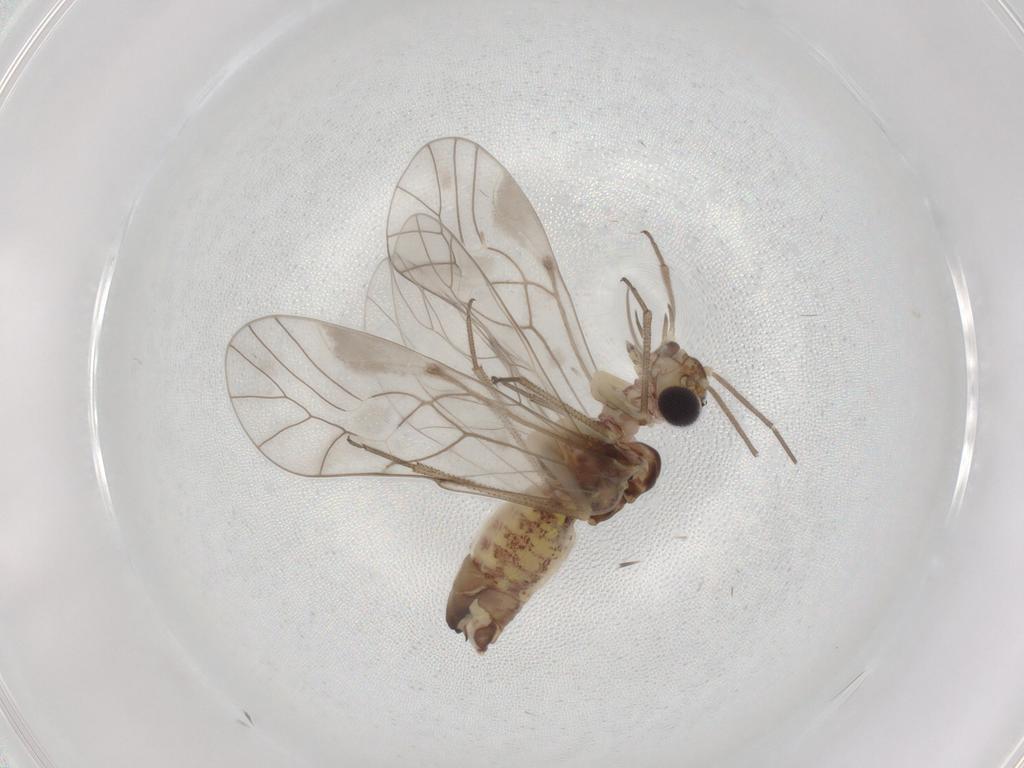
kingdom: Animalia
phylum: Arthropoda
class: Insecta
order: Psocodea
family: Psocidae
